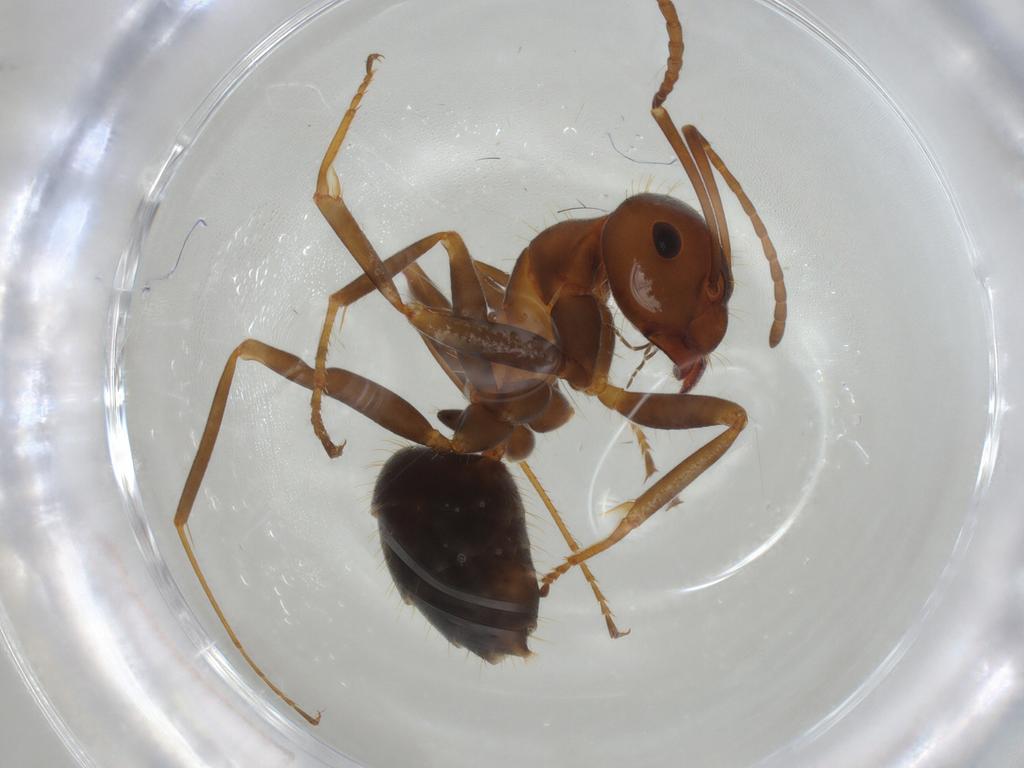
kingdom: Animalia
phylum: Arthropoda
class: Insecta
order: Hymenoptera
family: Formicidae
